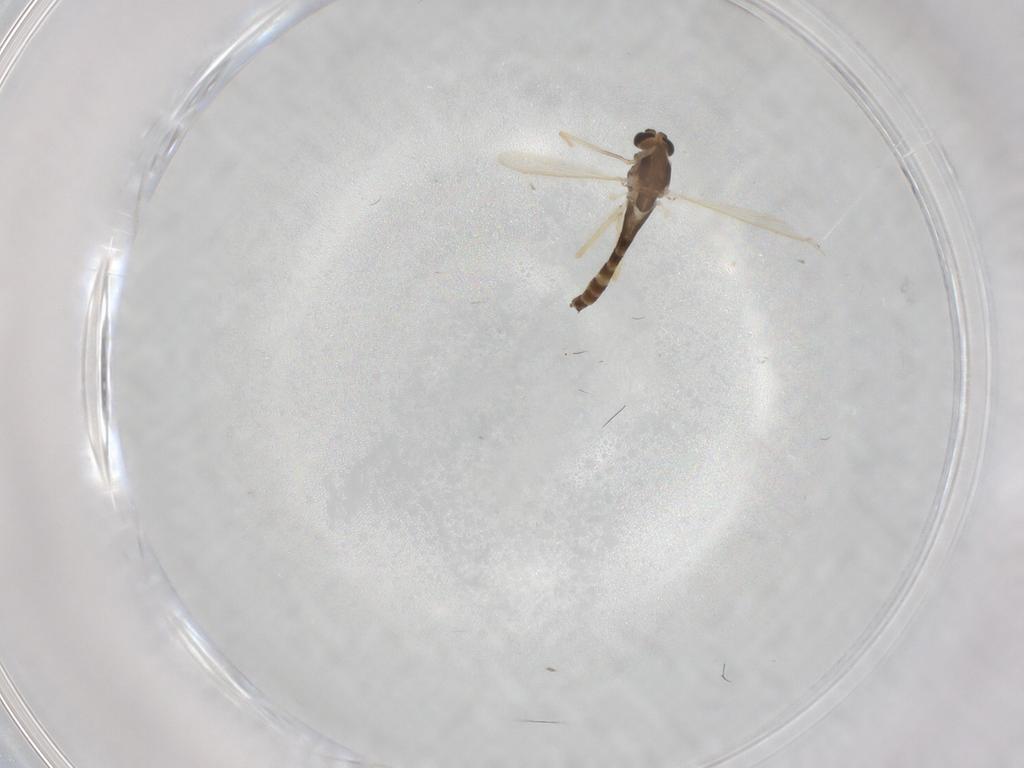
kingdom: Animalia
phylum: Arthropoda
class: Insecta
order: Diptera
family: Chironomidae
